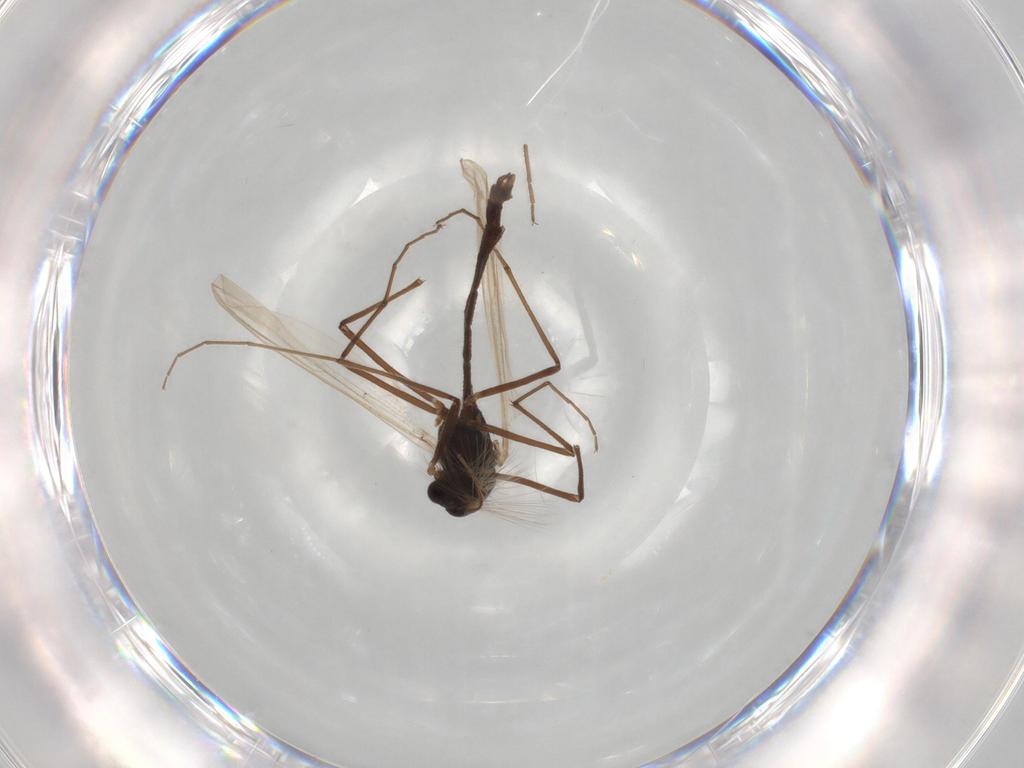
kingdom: Animalia
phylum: Arthropoda
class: Insecta
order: Diptera
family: Phoridae
